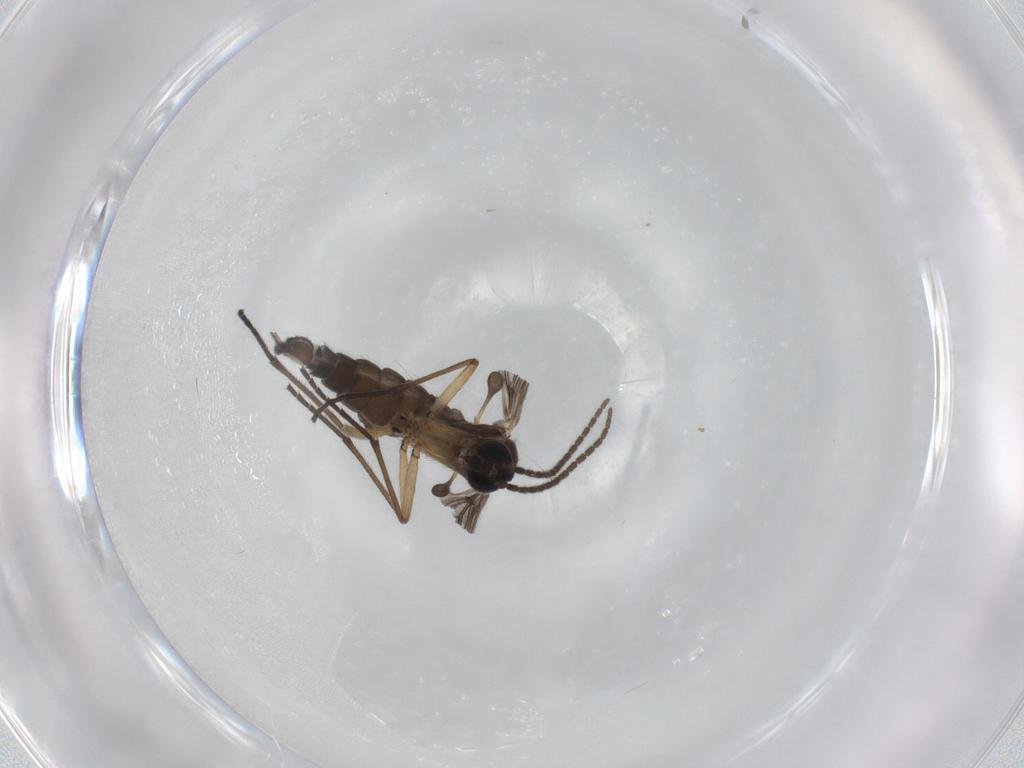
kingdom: Animalia
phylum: Arthropoda
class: Insecta
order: Diptera
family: Sciaridae
